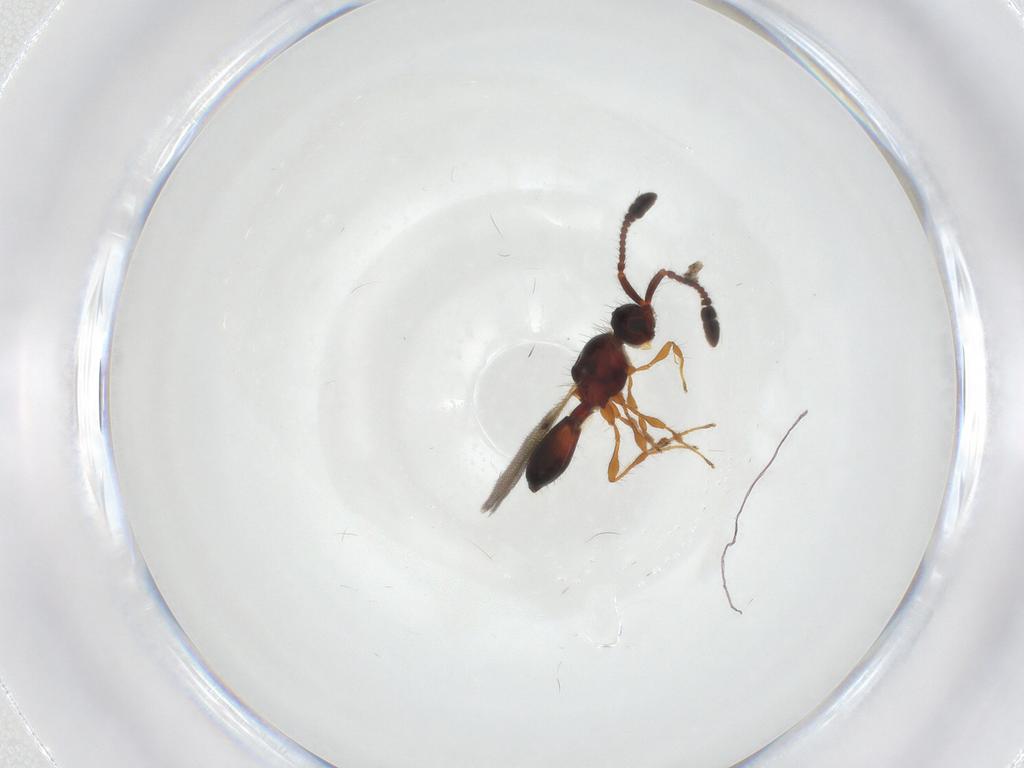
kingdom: Animalia
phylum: Arthropoda
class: Insecta
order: Hymenoptera
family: Diapriidae
